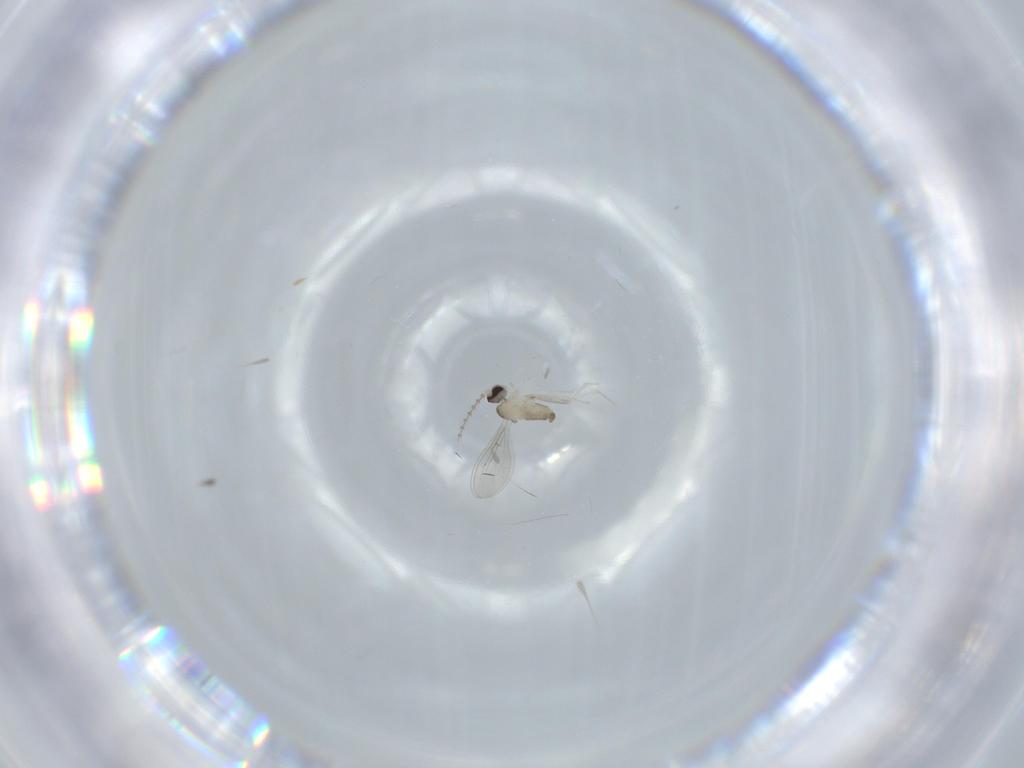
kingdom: Animalia
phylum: Arthropoda
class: Insecta
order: Diptera
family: Cecidomyiidae
